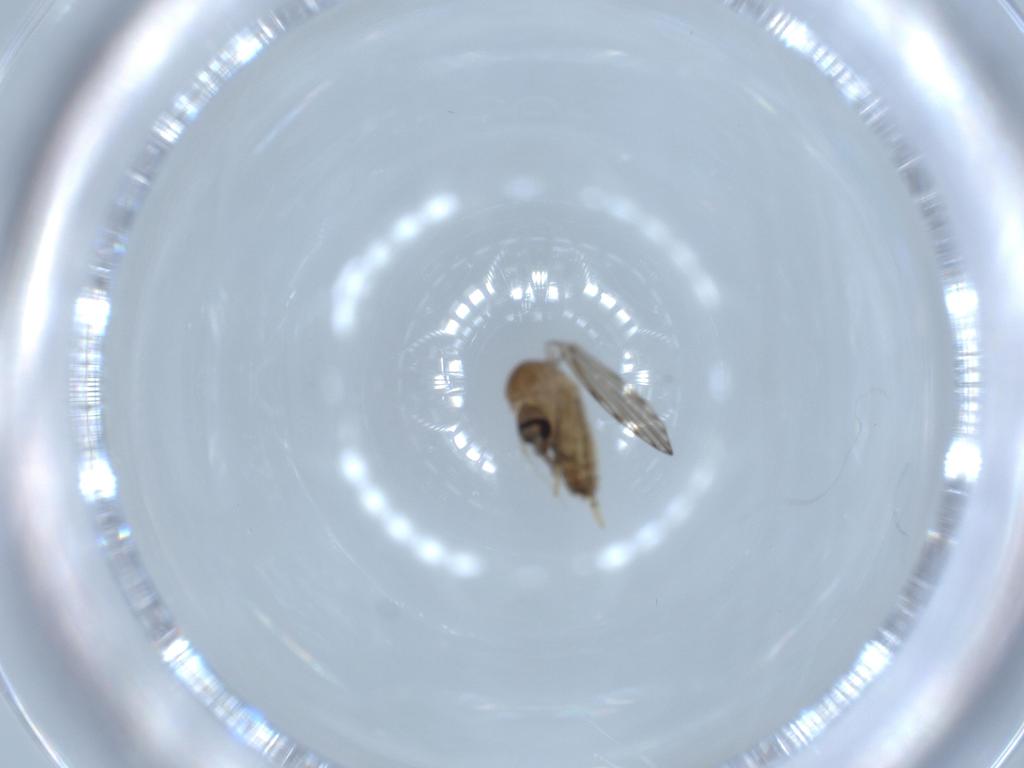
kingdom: Animalia
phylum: Arthropoda
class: Insecta
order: Diptera
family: Psychodidae
